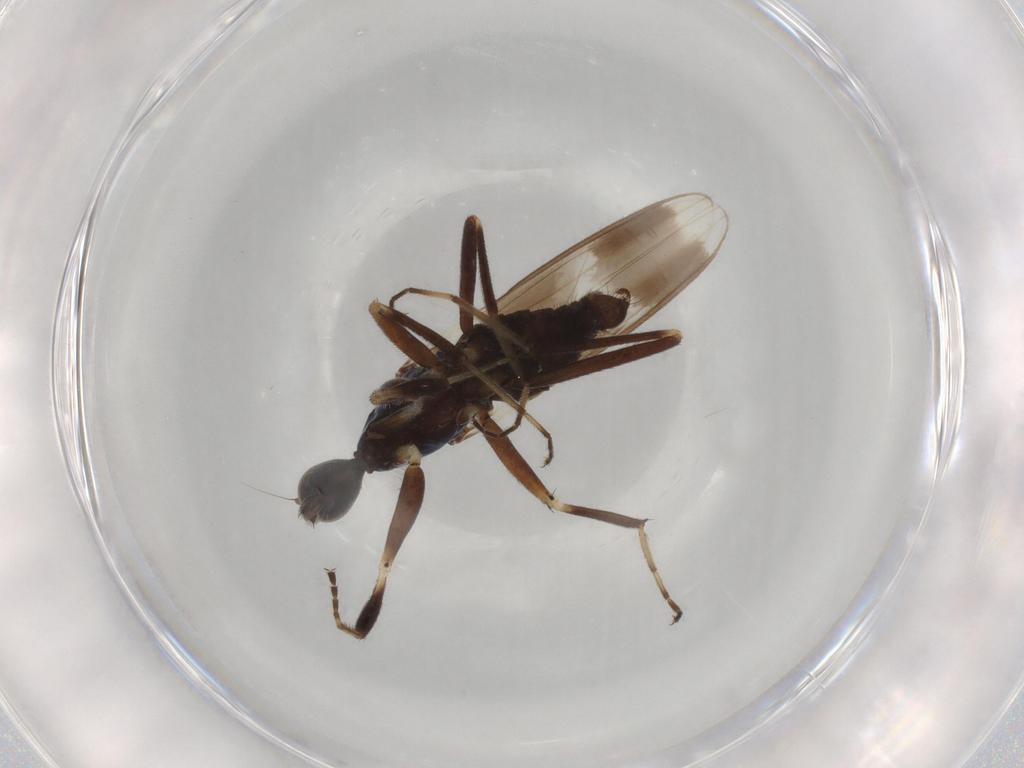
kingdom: Animalia
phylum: Arthropoda
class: Insecta
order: Diptera
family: Hybotidae
